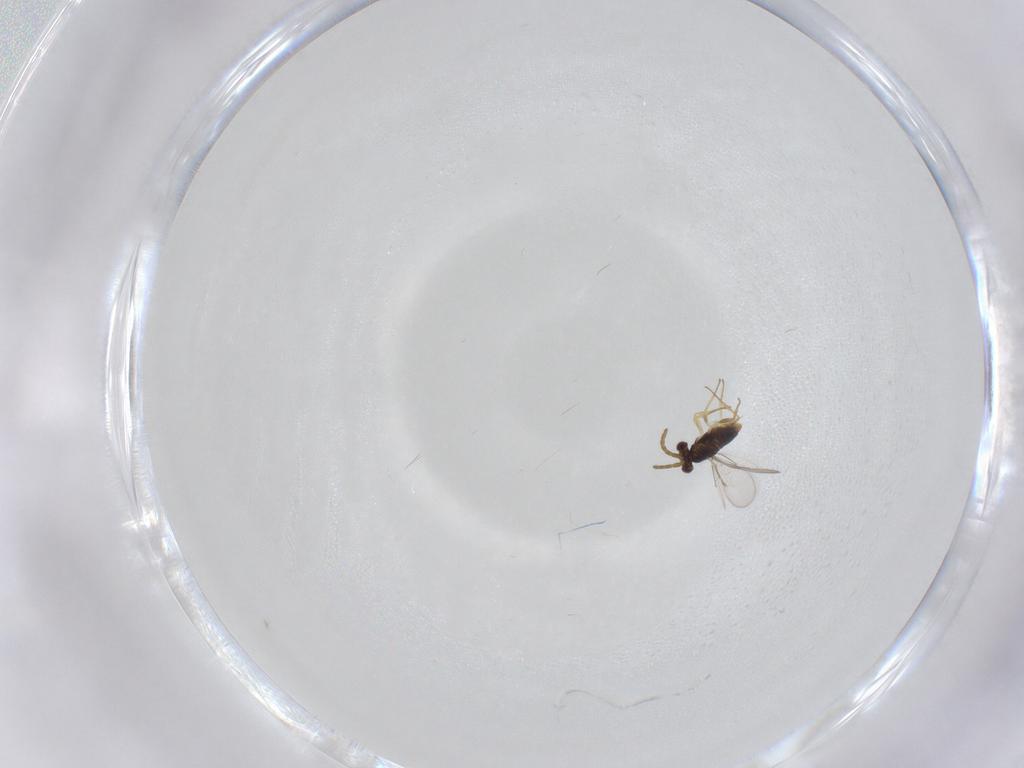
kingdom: Animalia
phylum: Arthropoda
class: Insecta
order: Hymenoptera
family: Aphelinidae
